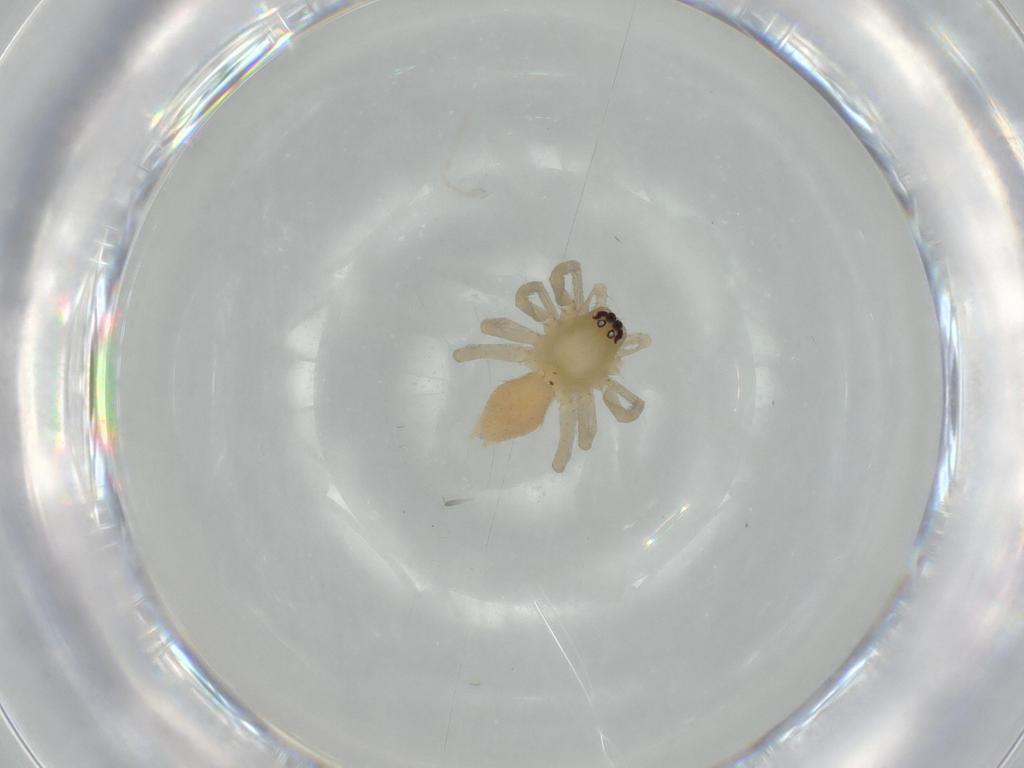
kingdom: Animalia
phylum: Arthropoda
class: Arachnida
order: Araneae
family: Cheiracanthiidae
